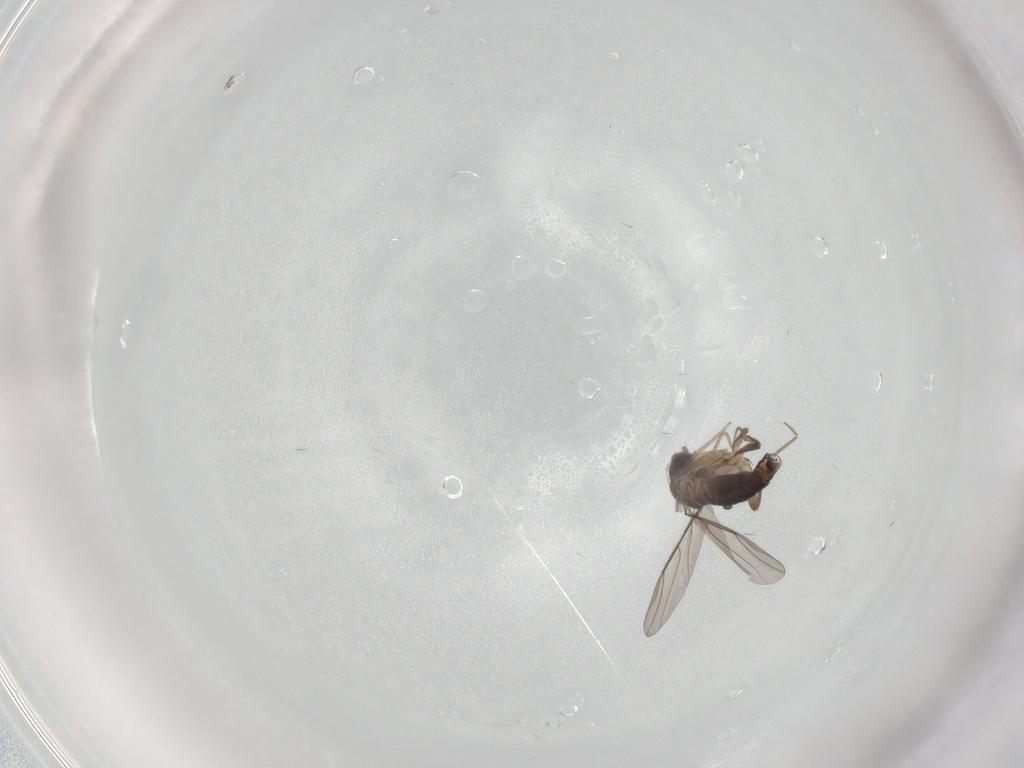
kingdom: Animalia
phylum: Arthropoda
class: Insecta
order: Diptera
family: Phoridae
